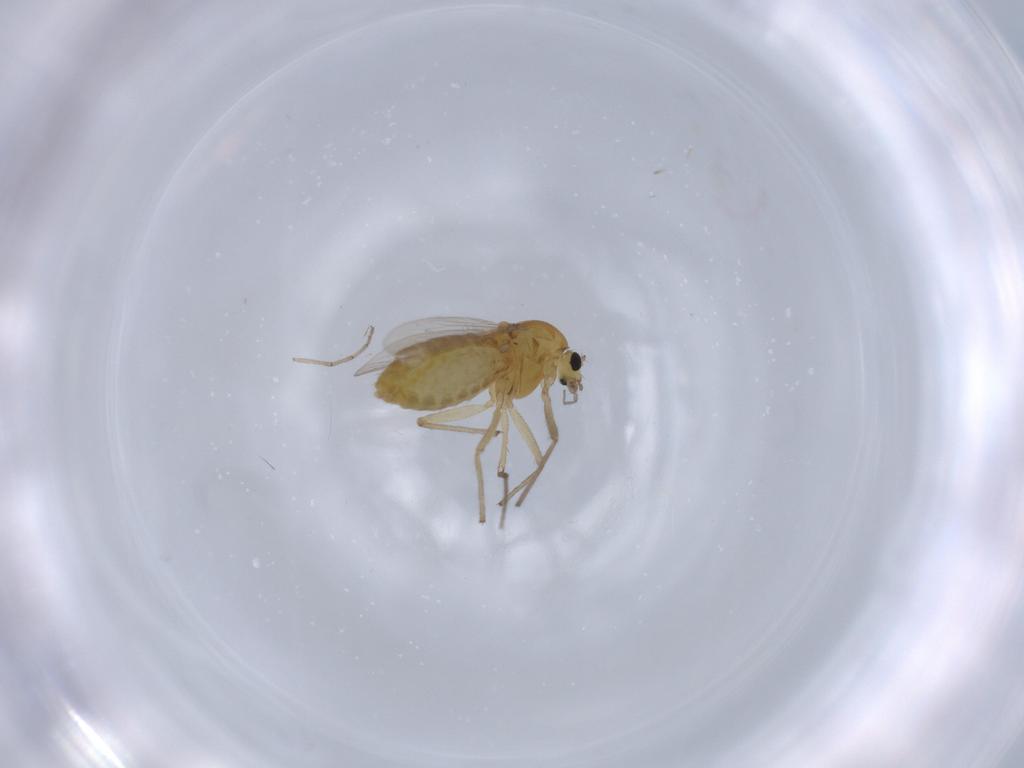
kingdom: Animalia
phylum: Arthropoda
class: Insecta
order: Diptera
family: Chironomidae
